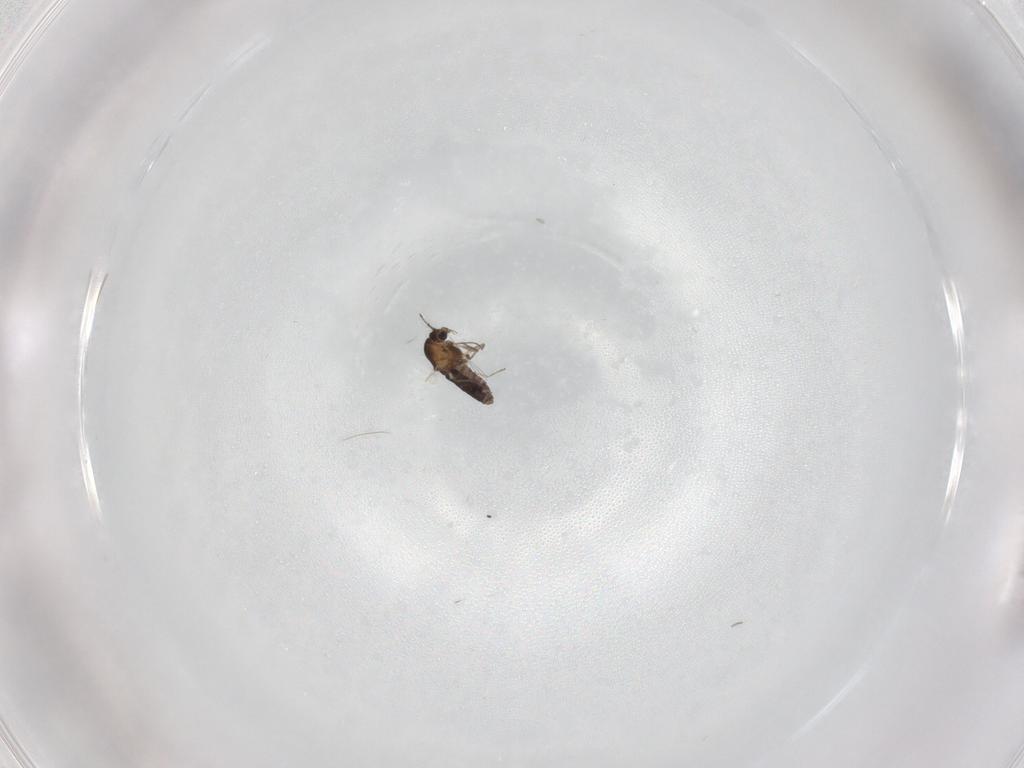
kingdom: Animalia
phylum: Arthropoda
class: Insecta
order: Diptera
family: Chironomidae
